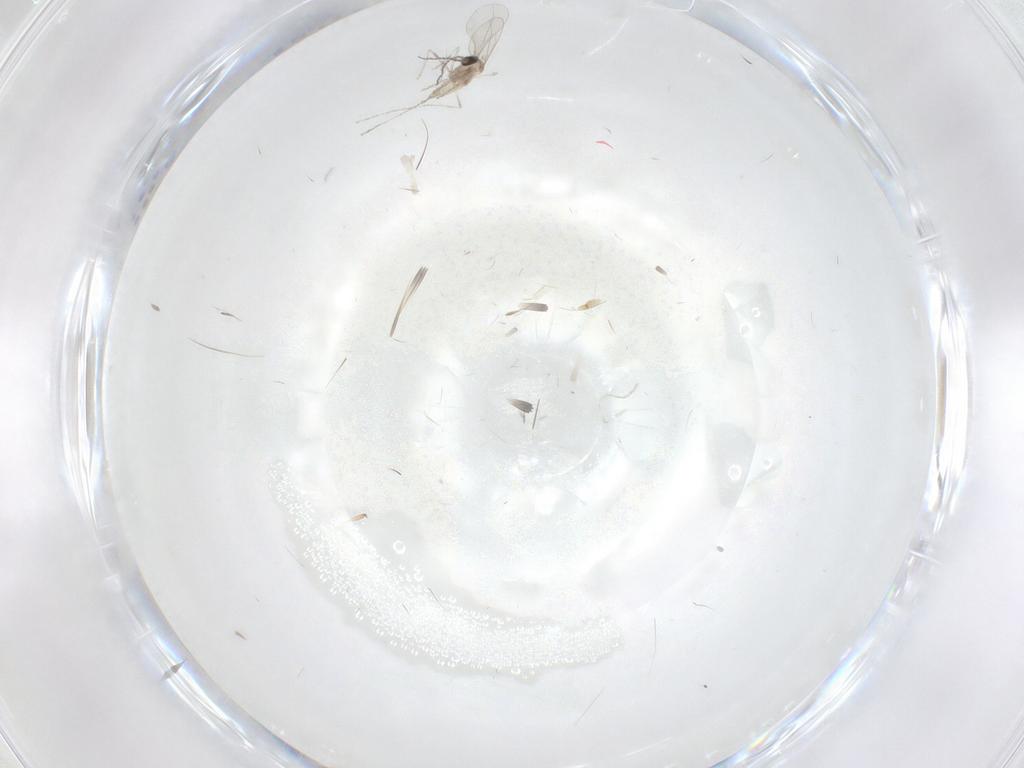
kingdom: Animalia
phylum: Arthropoda
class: Insecta
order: Diptera
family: Cecidomyiidae
